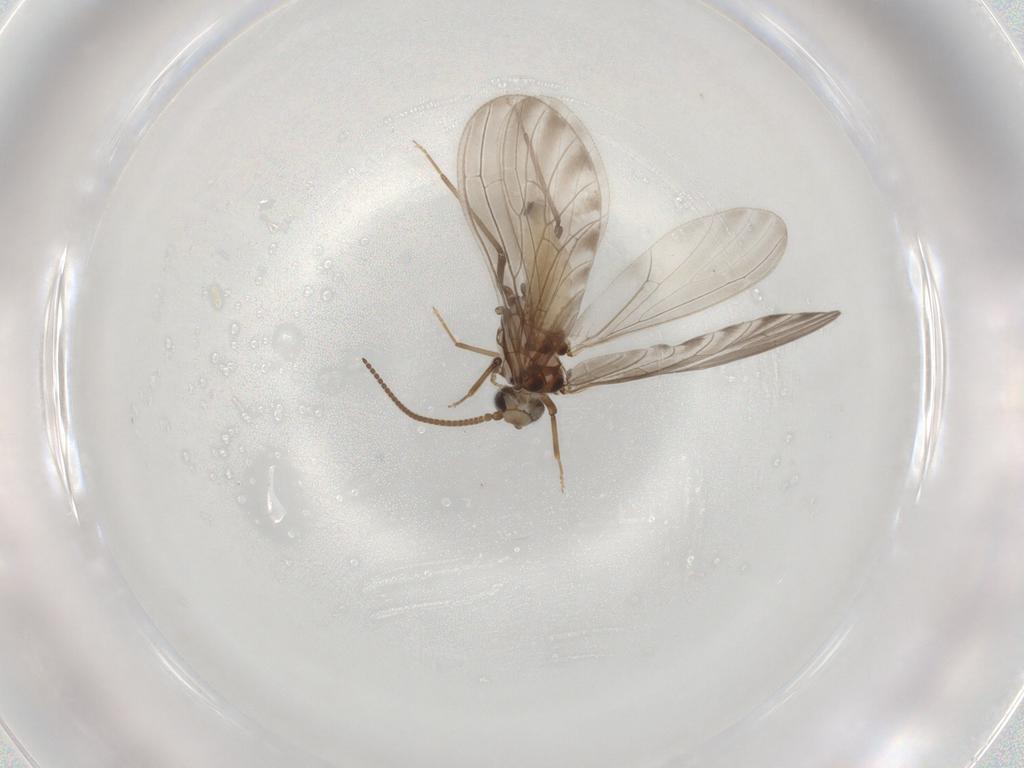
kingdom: Animalia
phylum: Arthropoda
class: Insecta
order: Neuroptera
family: Coniopterygidae
